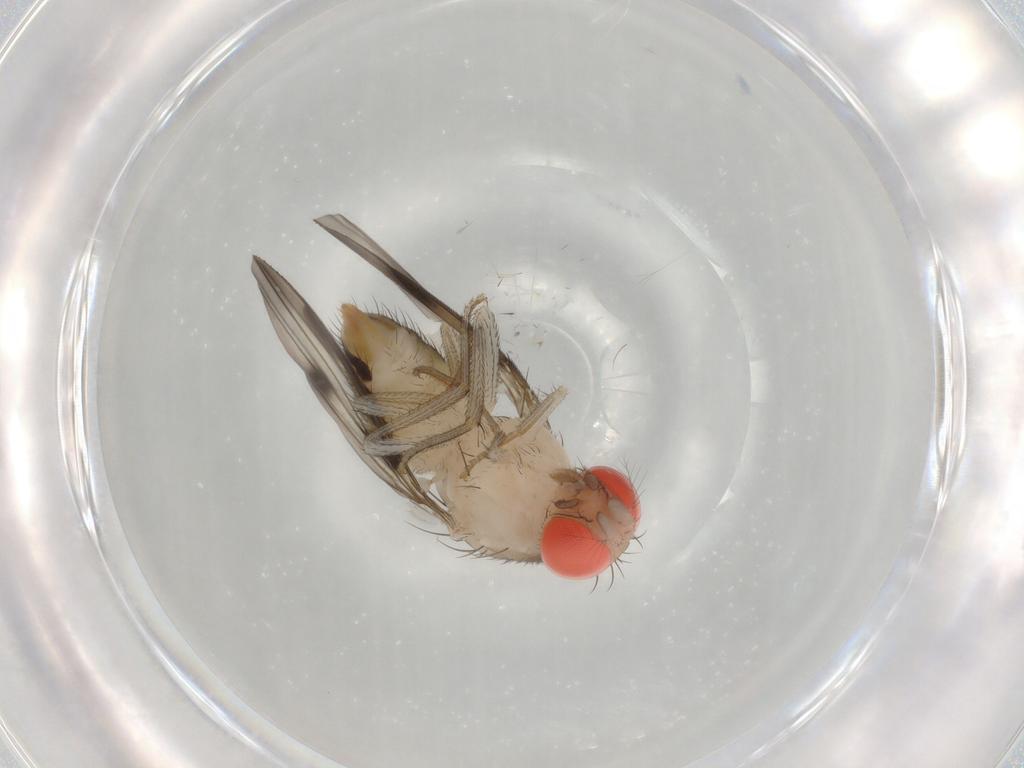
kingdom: Animalia
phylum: Arthropoda
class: Insecta
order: Diptera
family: Drosophilidae
